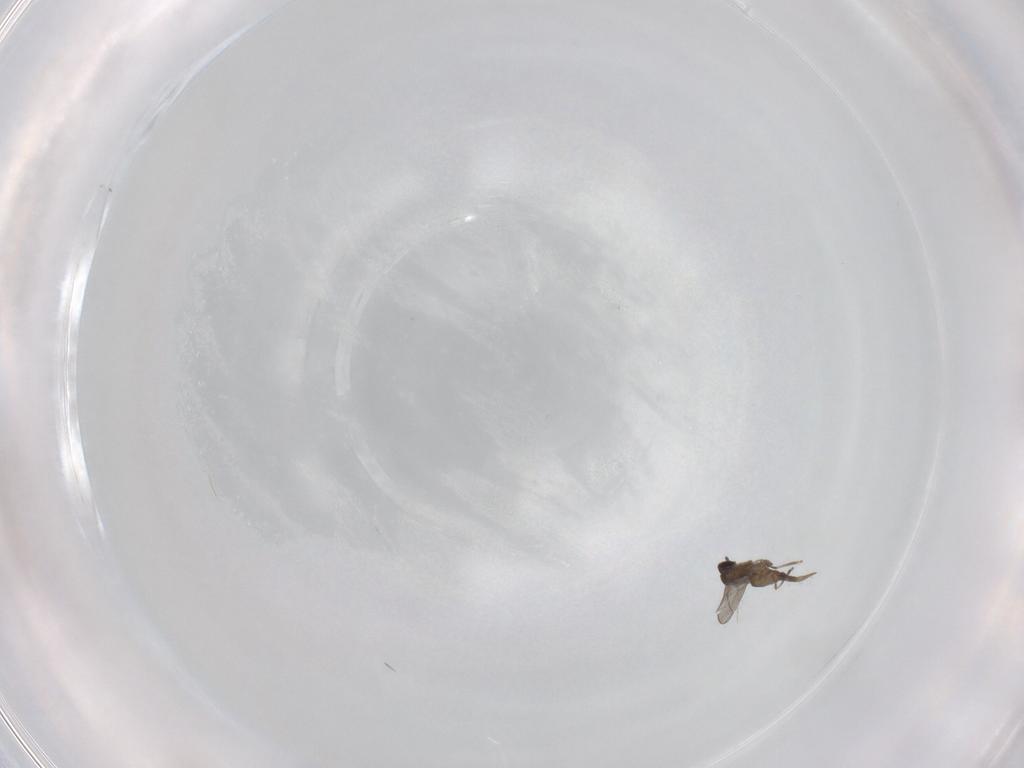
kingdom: Animalia
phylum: Arthropoda
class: Insecta
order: Diptera
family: Cecidomyiidae
